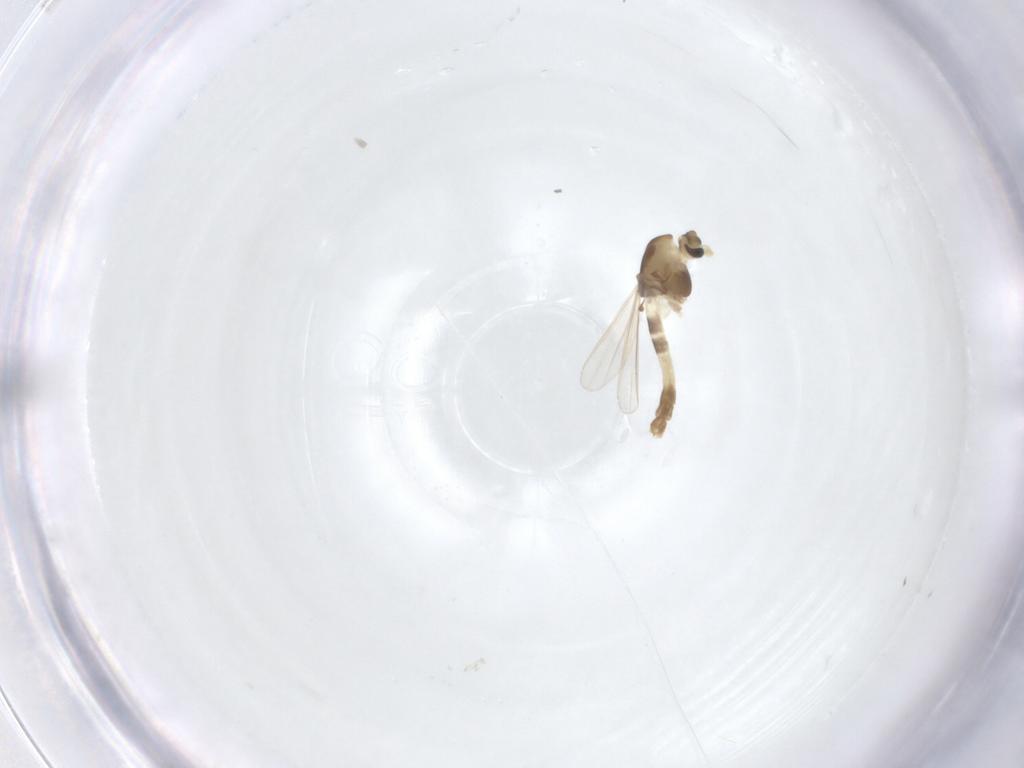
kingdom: Animalia
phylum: Arthropoda
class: Insecta
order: Diptera
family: Chironomidae
